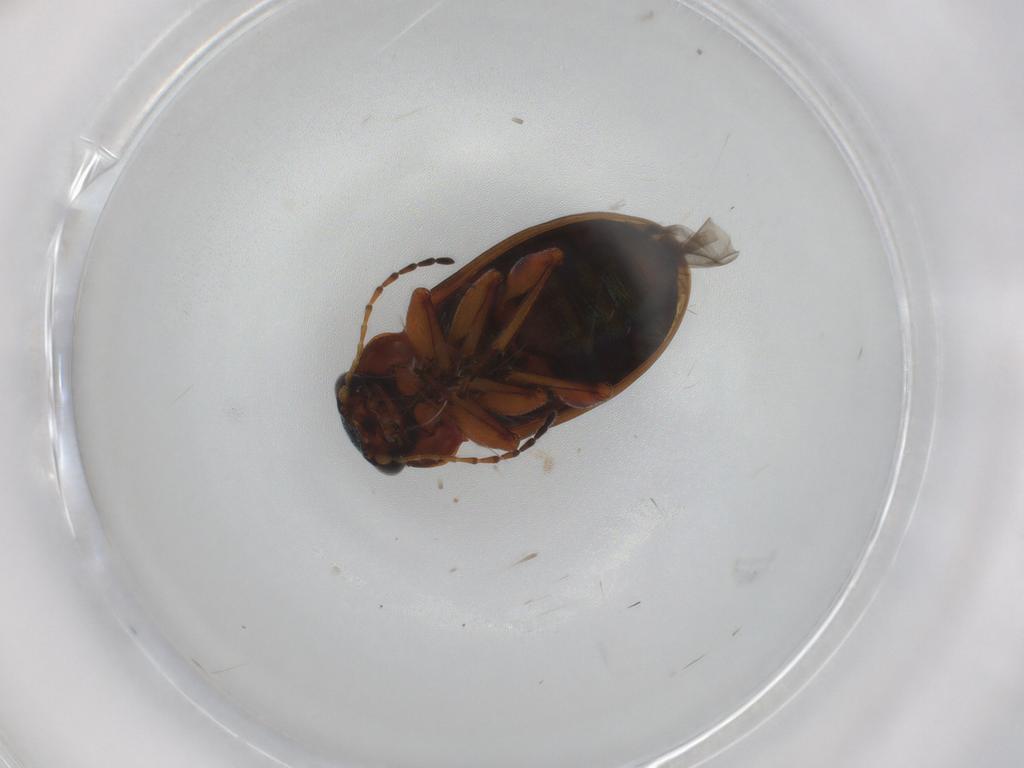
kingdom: Animalia
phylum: Arthropoda
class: Insecta
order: Coleoptera
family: Chrysomelidae
